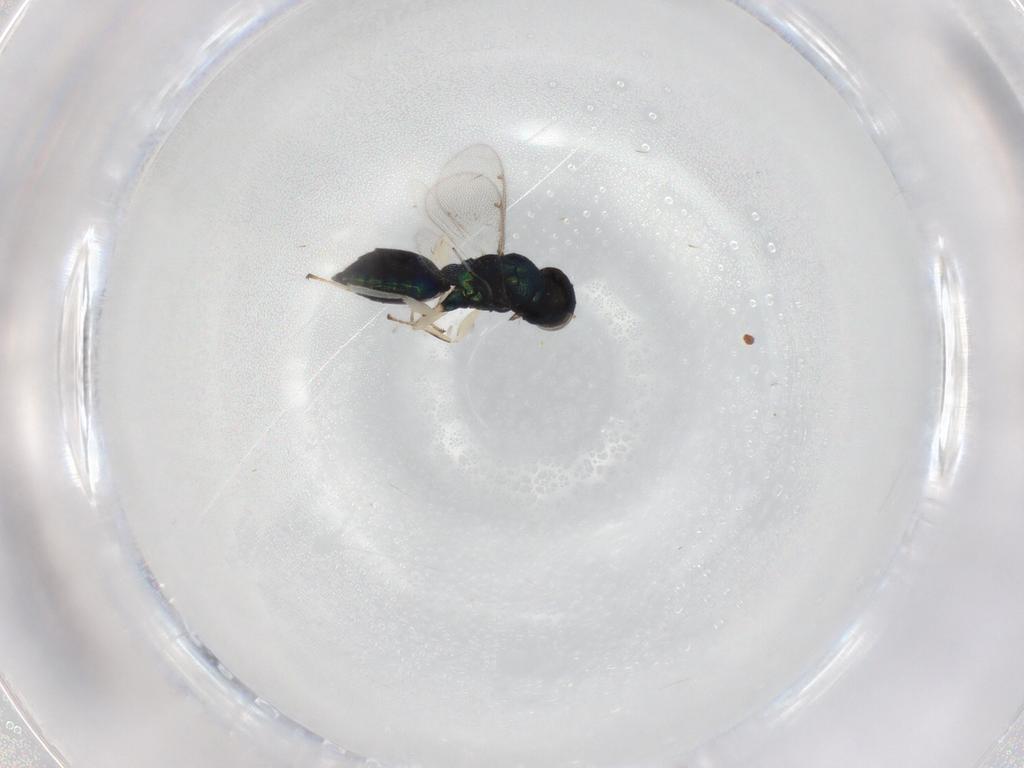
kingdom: Animalia
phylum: Arthropoda
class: Insecta
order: Hymenoptera
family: Eulophidae
